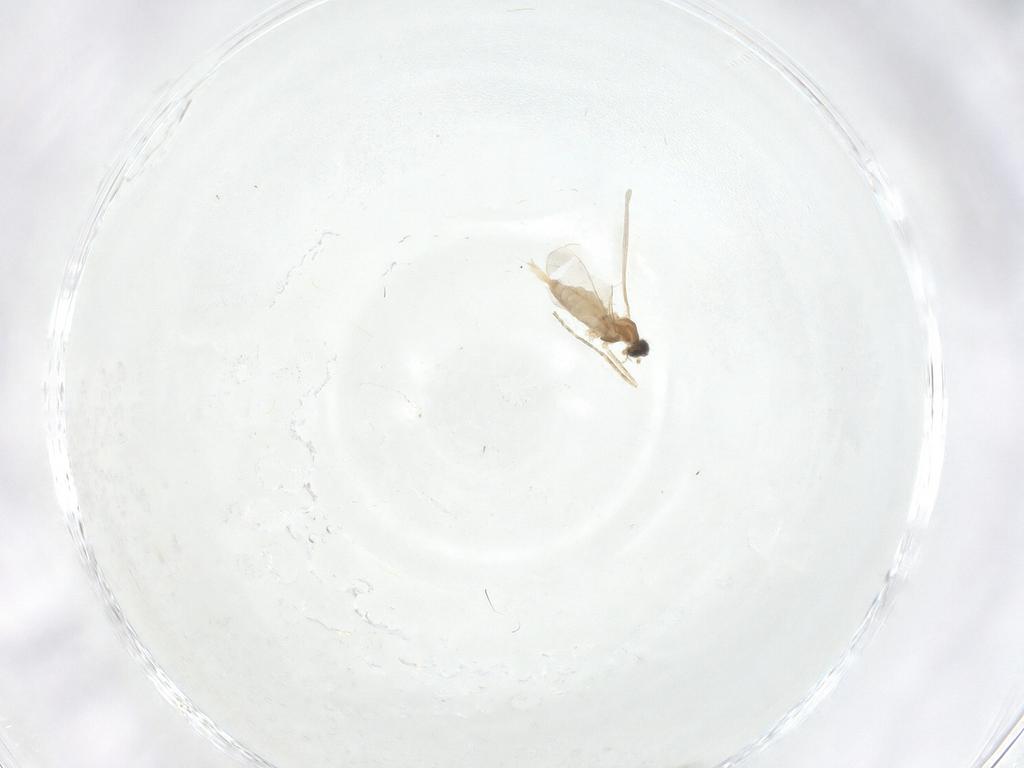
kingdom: Animalia
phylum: Arthropoda
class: Insecta
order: Diptera
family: Cecidomyiidae
